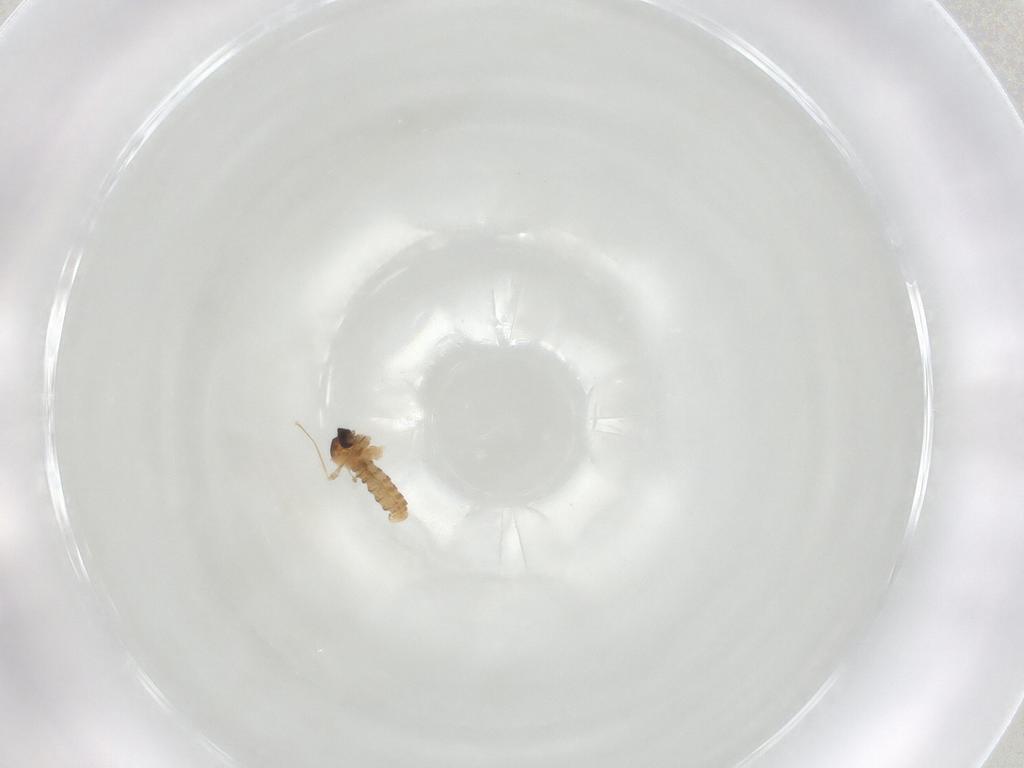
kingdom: Animalia
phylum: Arthropoda
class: Insecta
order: Diptera
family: Cecidomyiidae
